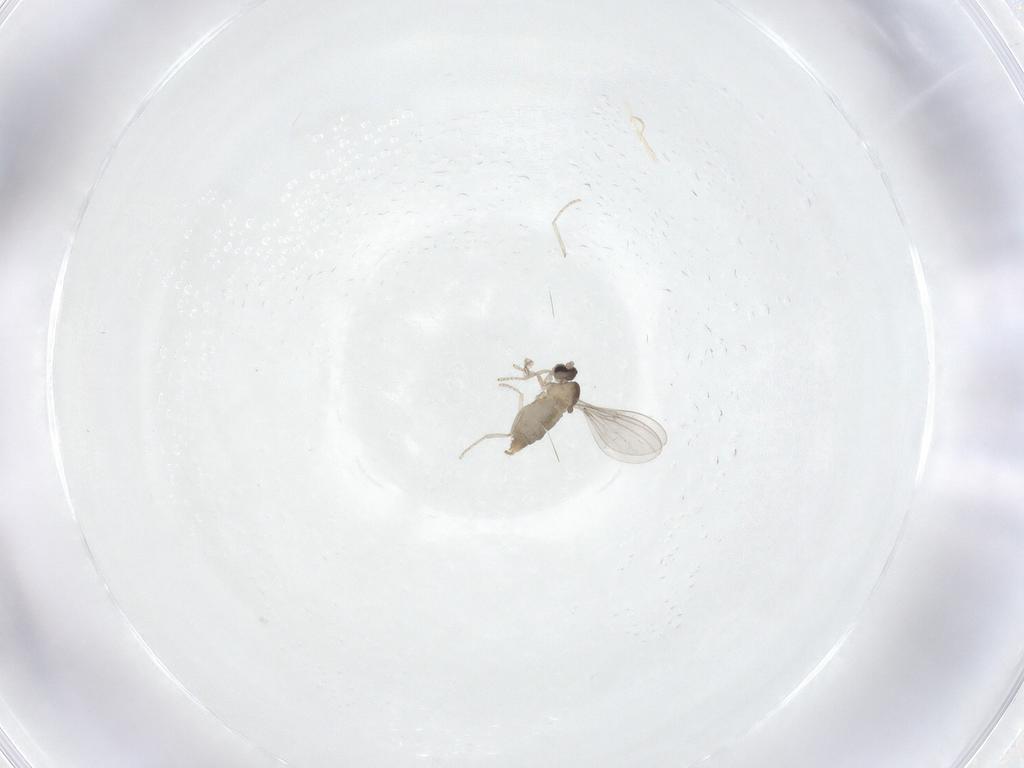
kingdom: Animalia
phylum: Arthropoda
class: Insecta
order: Diptera
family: Cecidomyiidae
